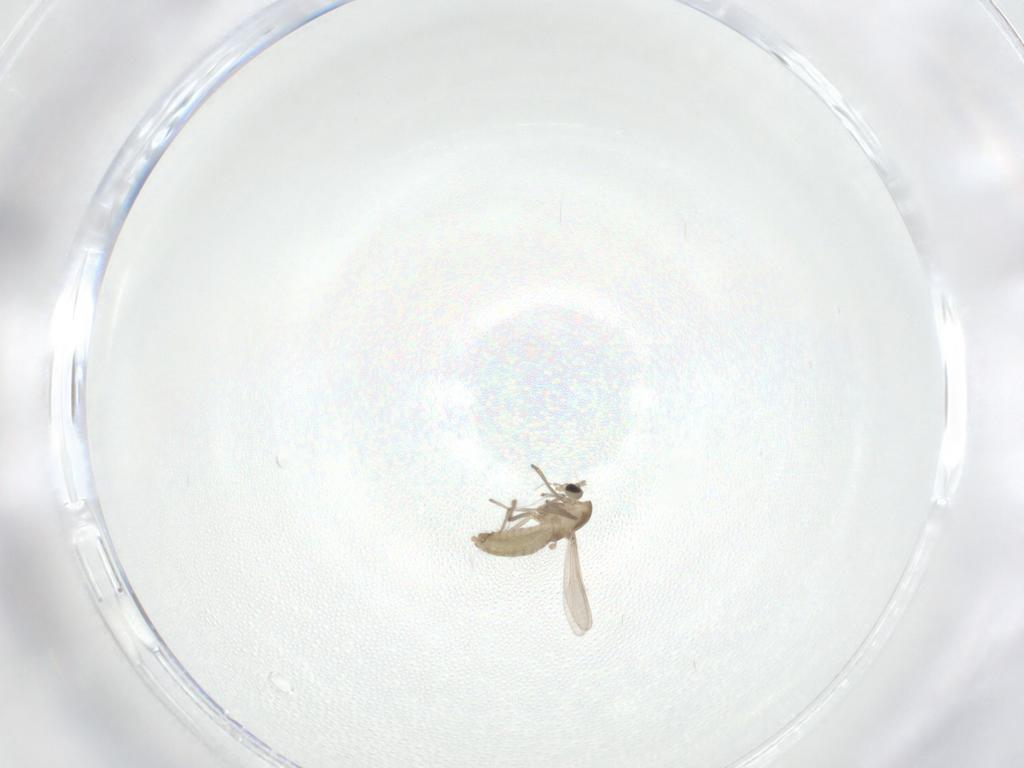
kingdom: Animalia
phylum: Arthropoda
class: Insecta
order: Diptera
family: Chironomidae
